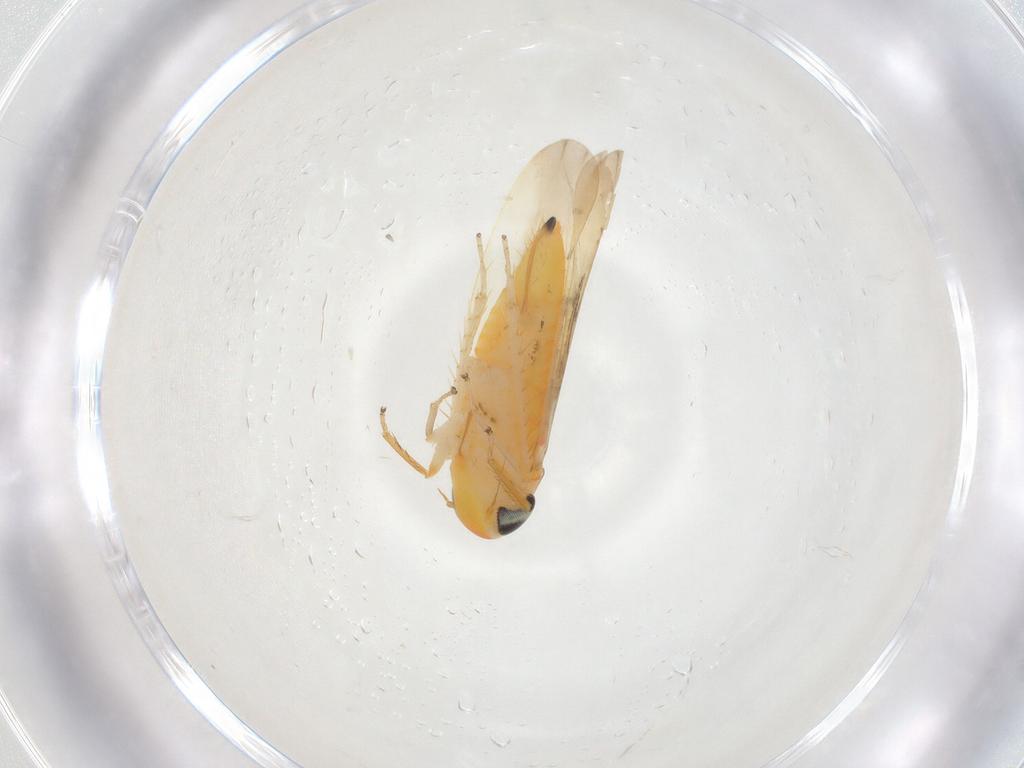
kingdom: Animalia
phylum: Arthropoda
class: Insecta
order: Hemiptera
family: Cicadellidae
